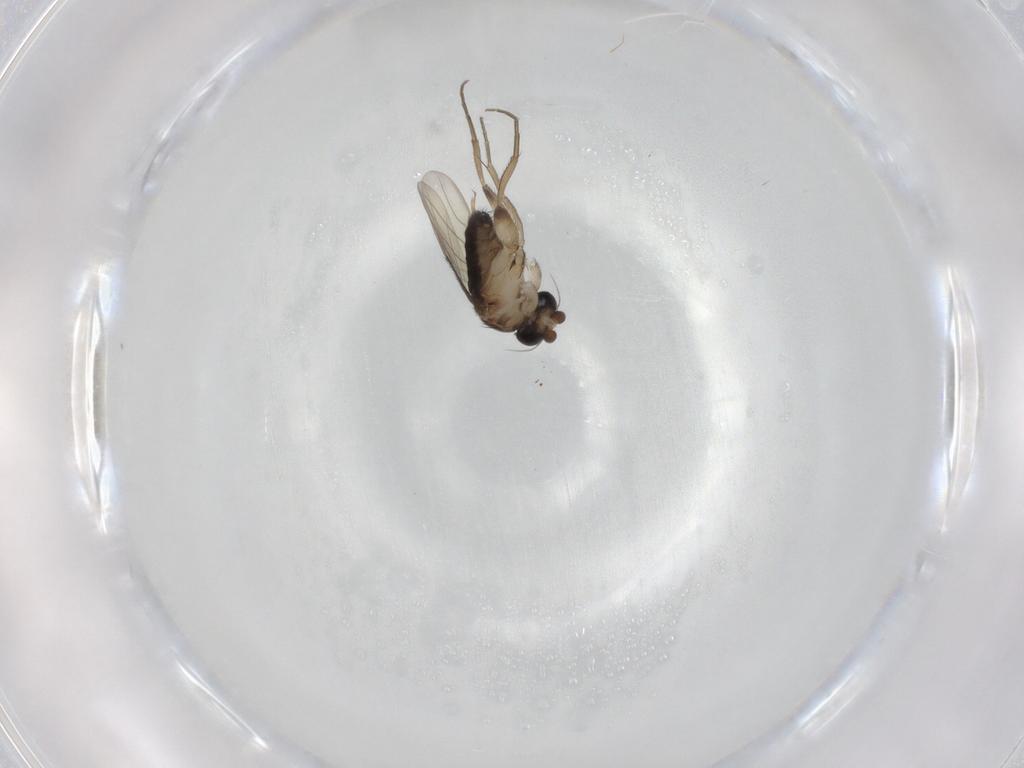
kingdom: Animalia
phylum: Arthropoda
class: Insecta
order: Diptera
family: Phoridae
